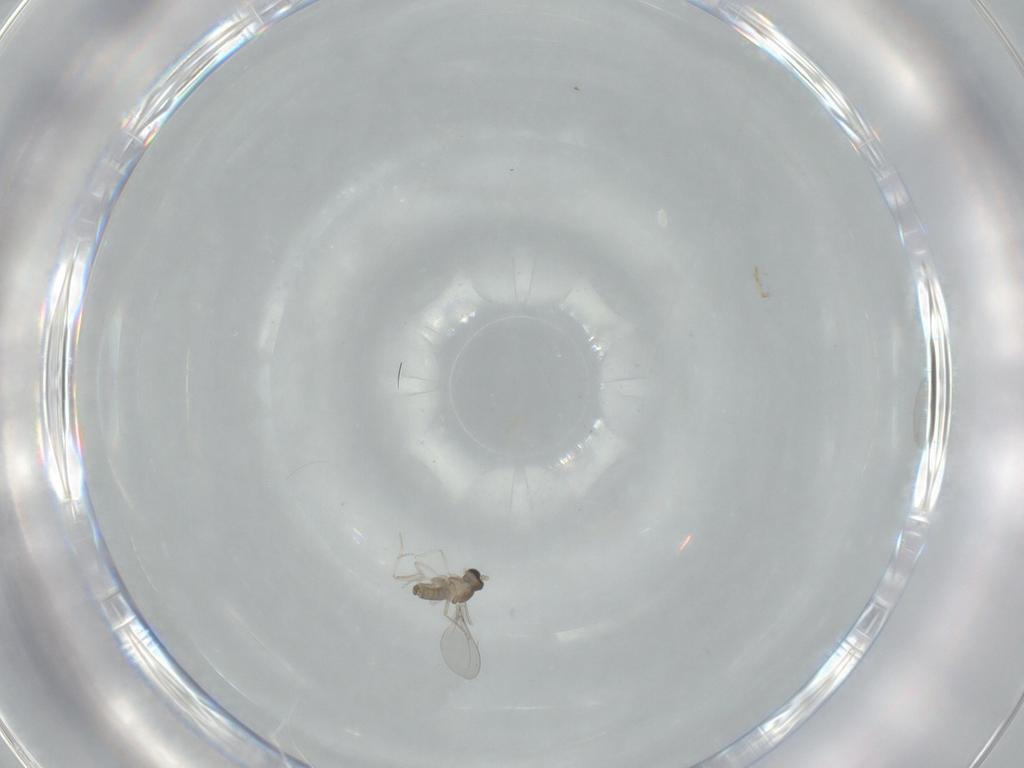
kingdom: Animalia
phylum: Arthropoda
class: Insecta
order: Diptera
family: Cecidomyiidae
